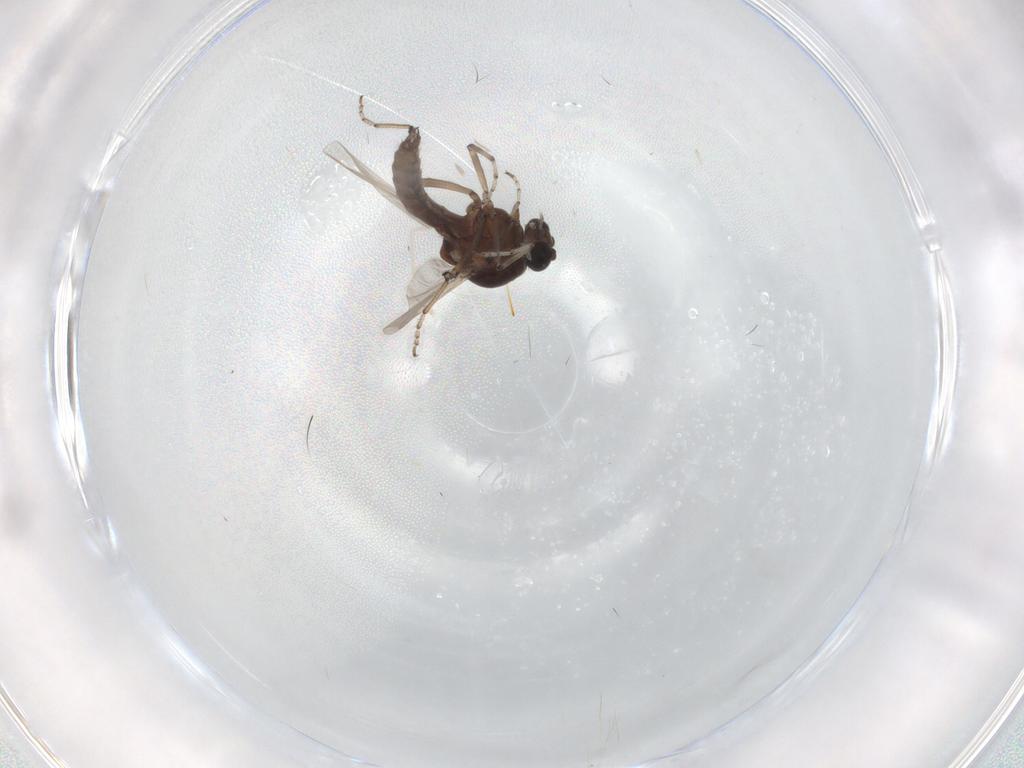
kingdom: Animalia
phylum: Arthropoda
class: Insecta
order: Diptera
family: Ceratopogonidae
